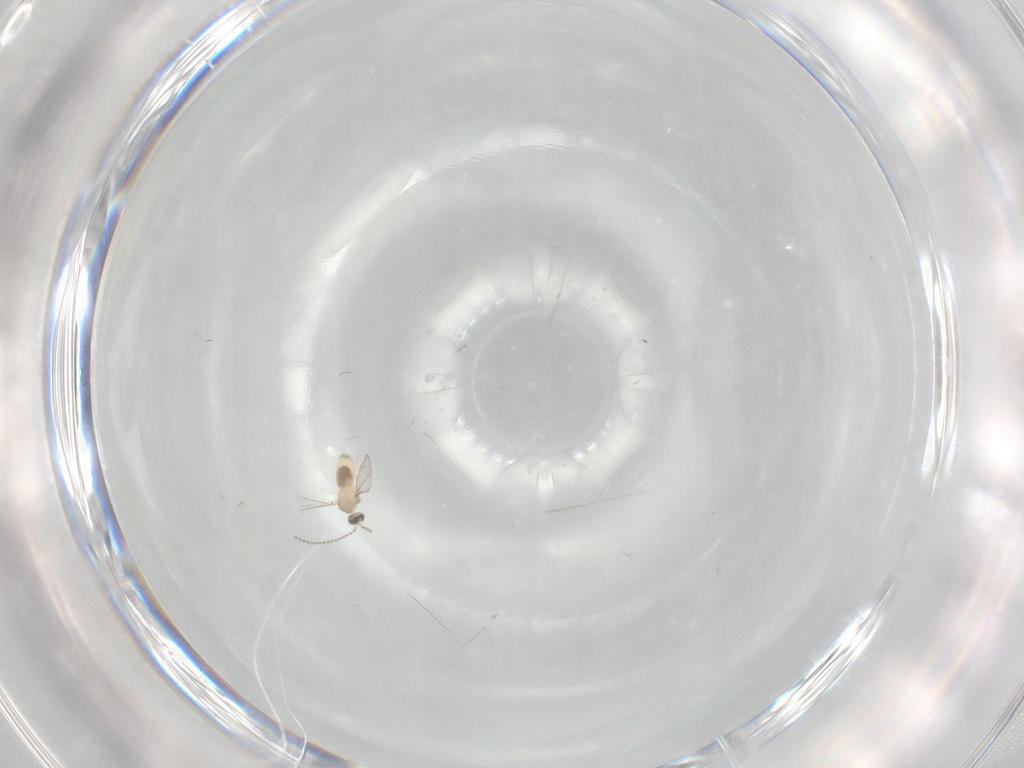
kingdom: Animalia
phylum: Arthropoda
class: Insecta
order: Diptera
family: Cecidomyiidae
